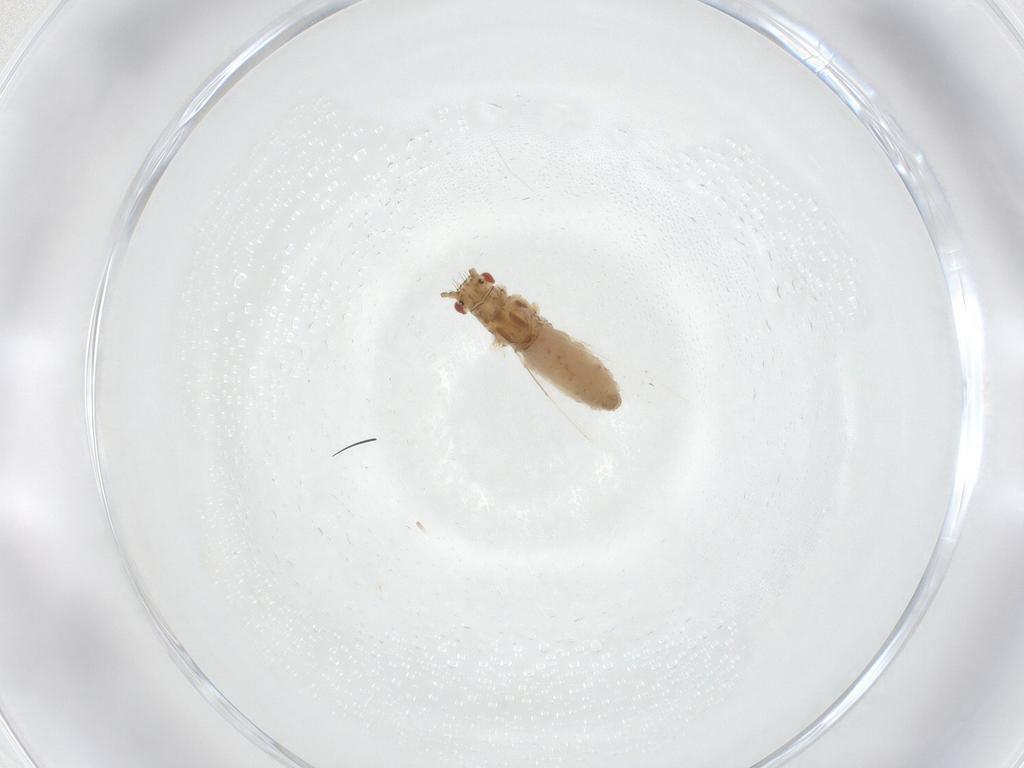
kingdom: Animalia
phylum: Arthropoda
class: Insecta
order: Hemiptera
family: Aphididae
